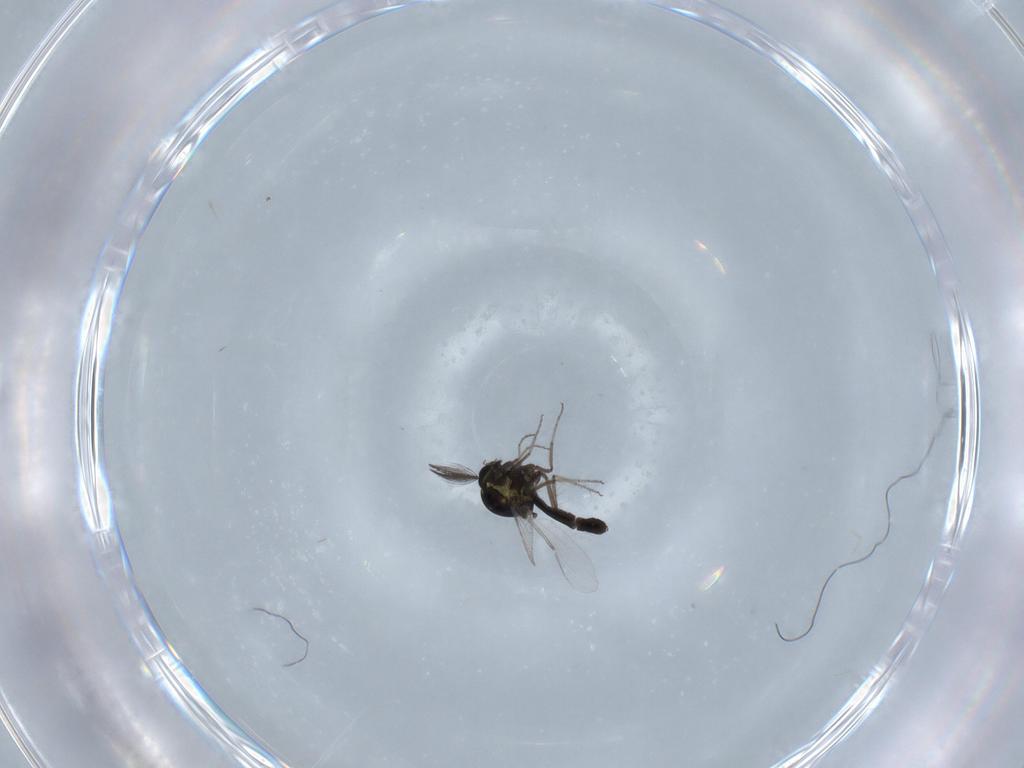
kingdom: Animalia
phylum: Arthropoda
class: Insecta
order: Diptera
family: Ceratopogonidae
